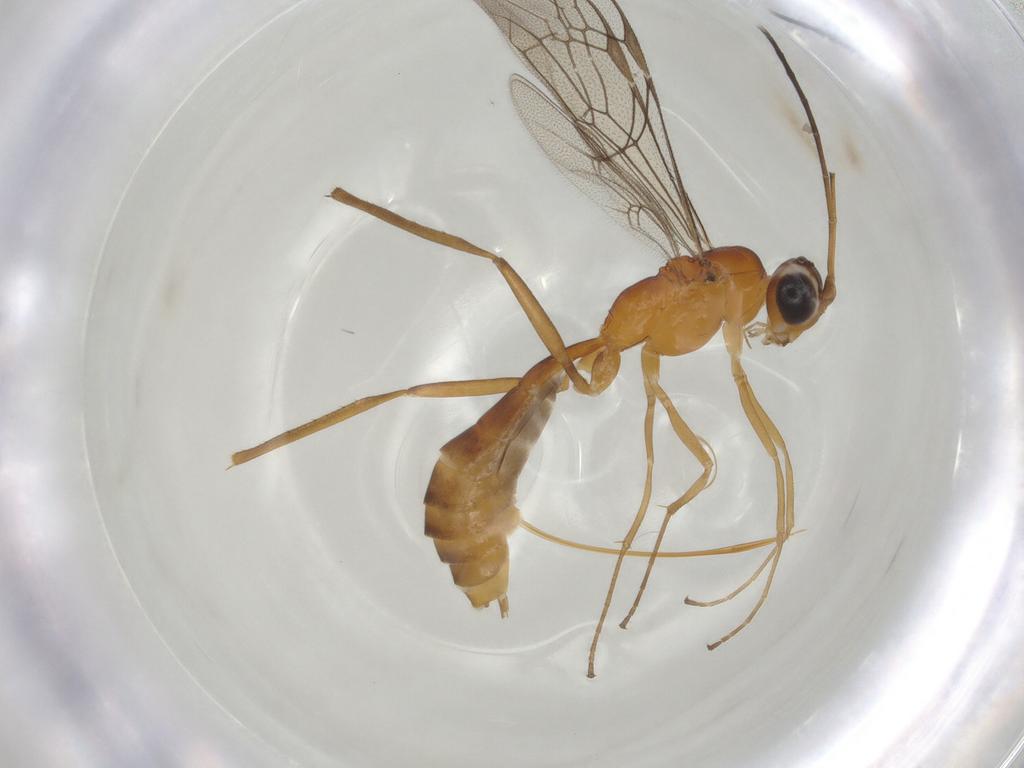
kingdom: Animalia
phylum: Arthropoda
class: Insecta
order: Hymenoptera
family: Ichneumonidae
